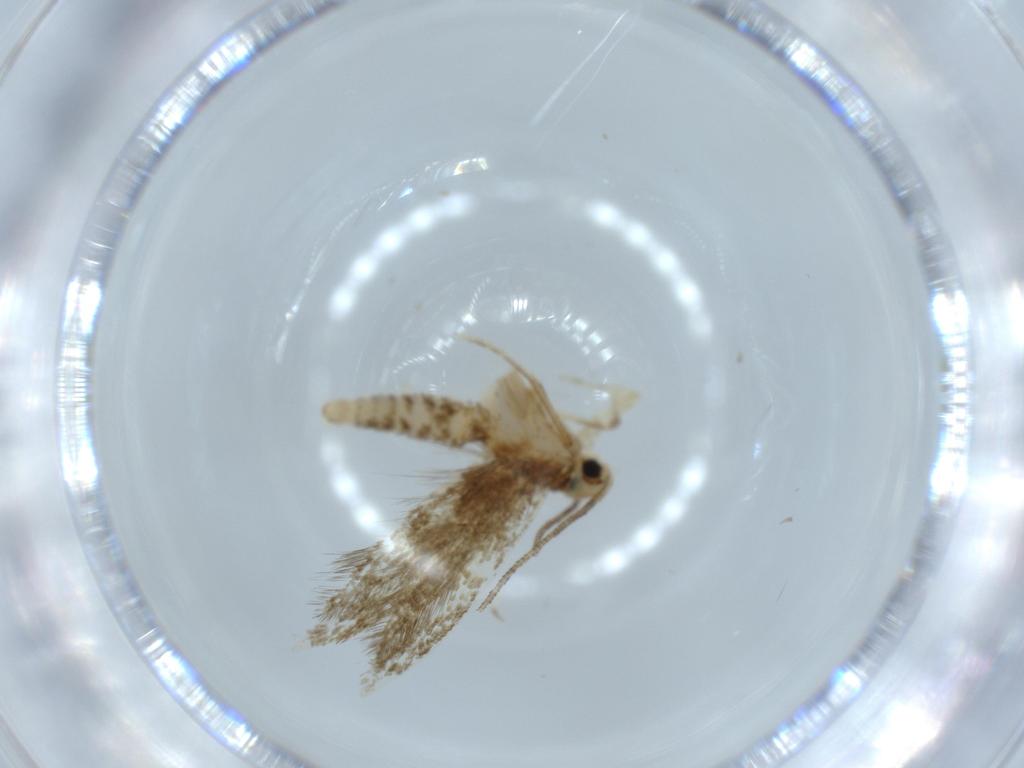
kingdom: Animalia
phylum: Arthropoda
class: Insecta
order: Lepidoptera
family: Tineidae
